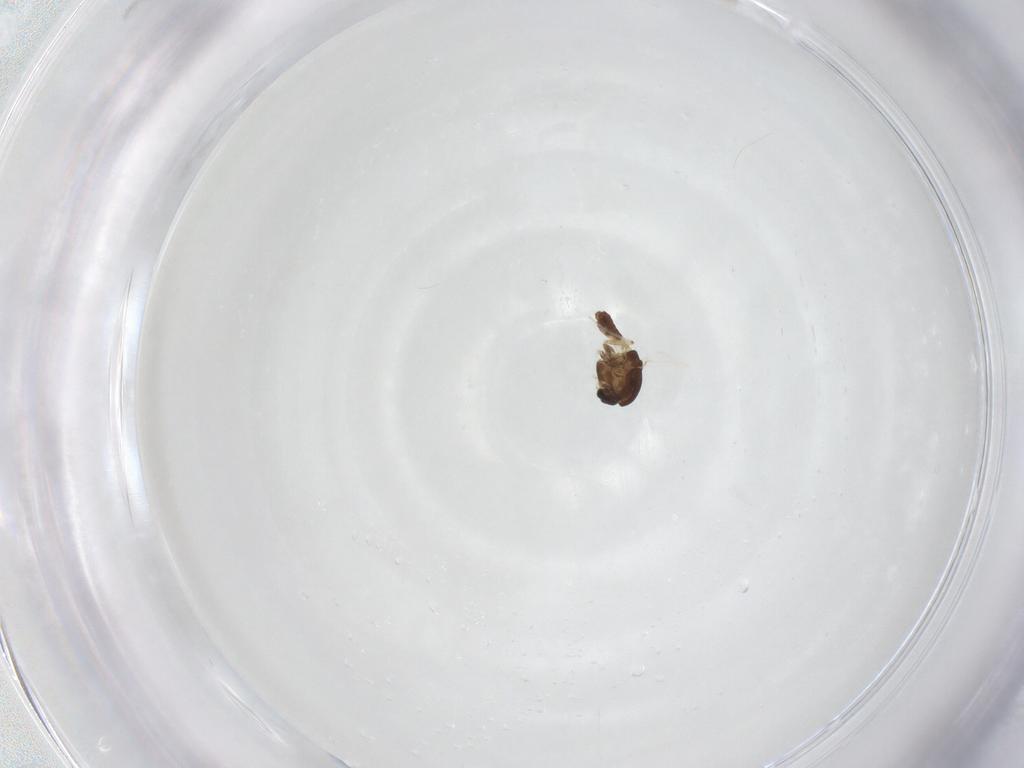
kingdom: Animalia
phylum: Arthropoda
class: Insecta
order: Diptera
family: Chironomidae
